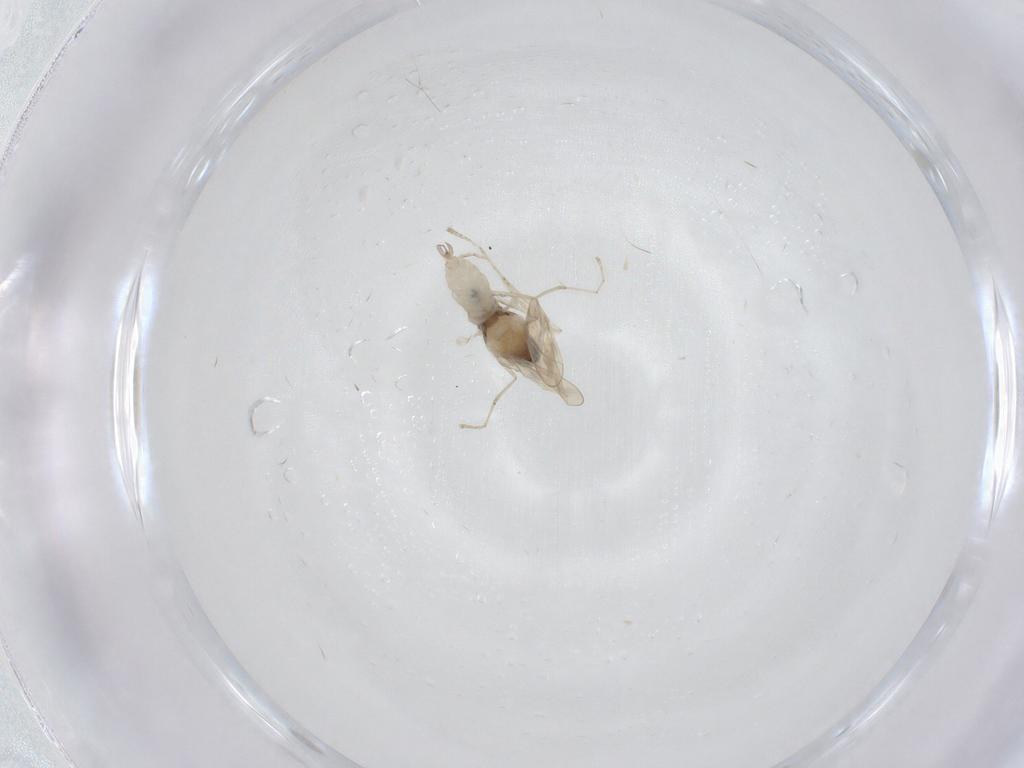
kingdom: Animalia
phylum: Arthropoda
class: Insecta
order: Diptera
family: Cecidomyiidae
